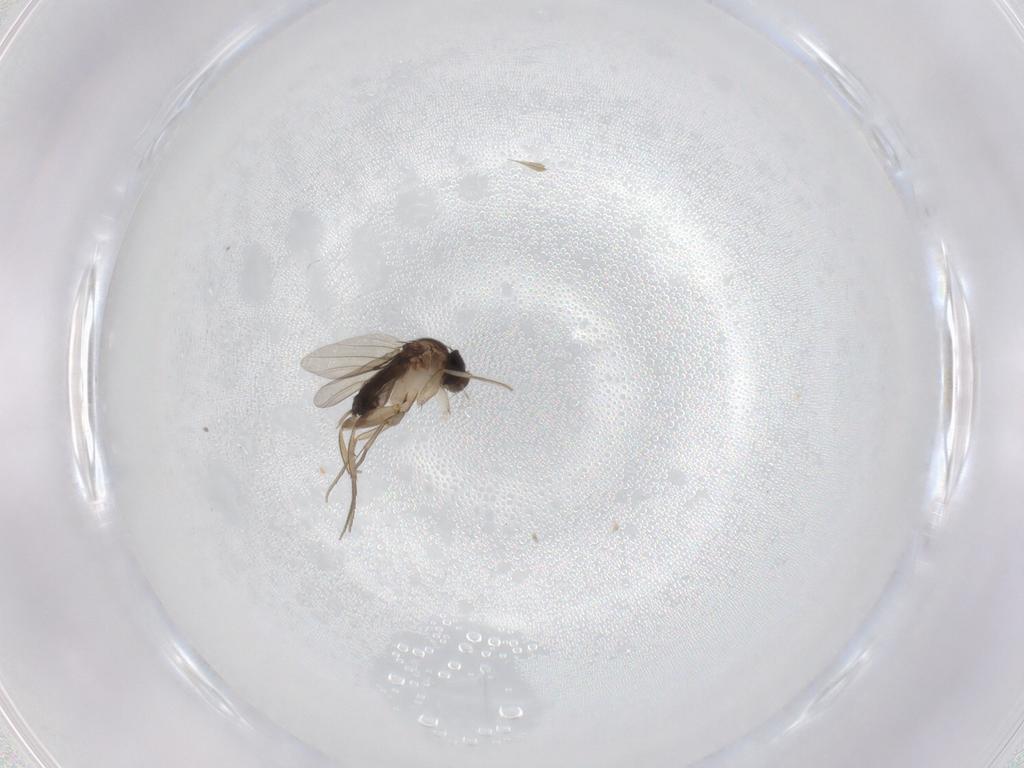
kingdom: Animalia
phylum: Arthropoda
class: Insecta
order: Diptera
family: Phoridae
